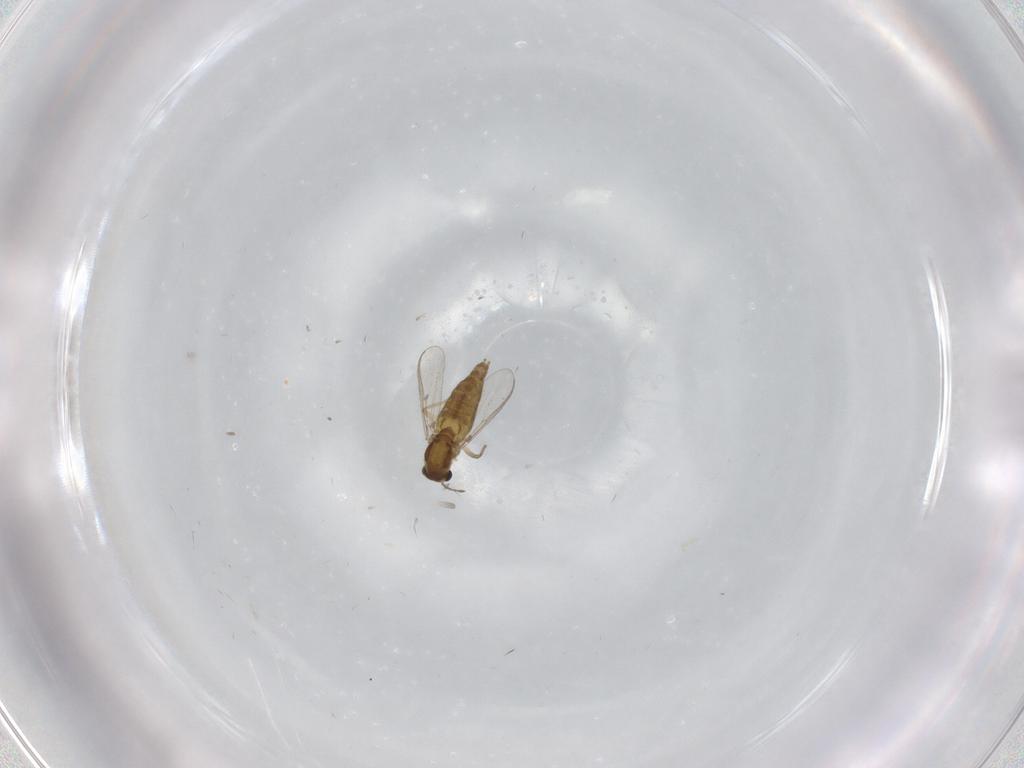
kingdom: Animalia
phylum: Arthropoda
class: Insecta
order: Diptera
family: Chironomidae
